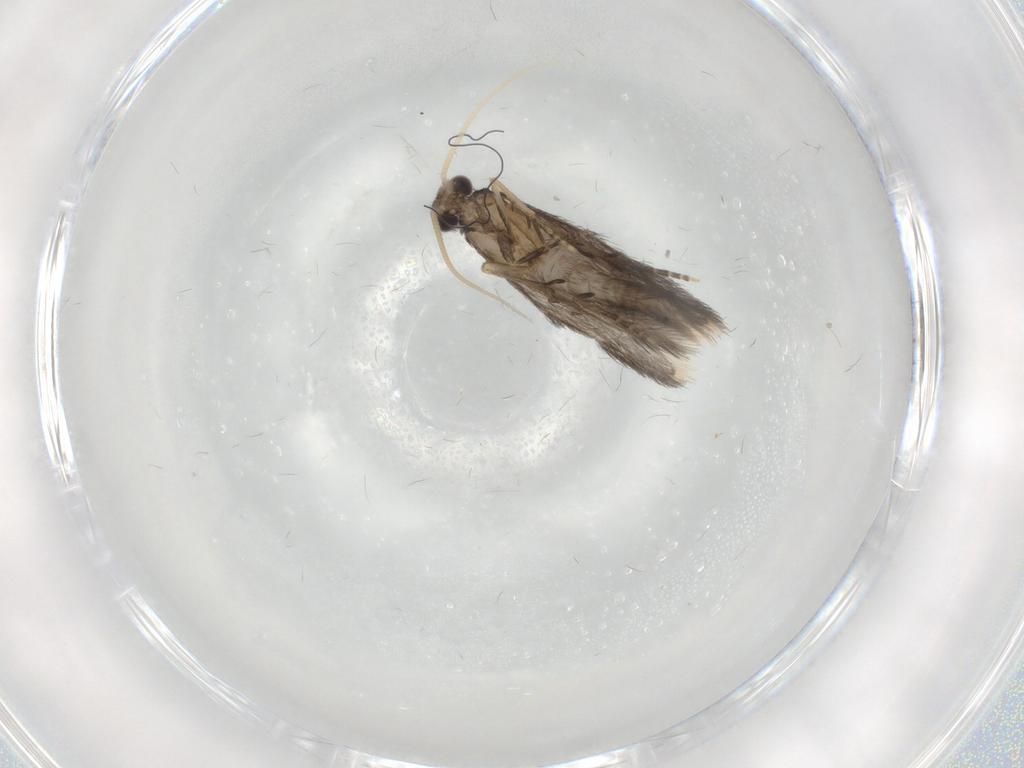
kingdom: Animalia
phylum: Arthropoda
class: Insecta
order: Trichoptera
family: Hydroptilidae
